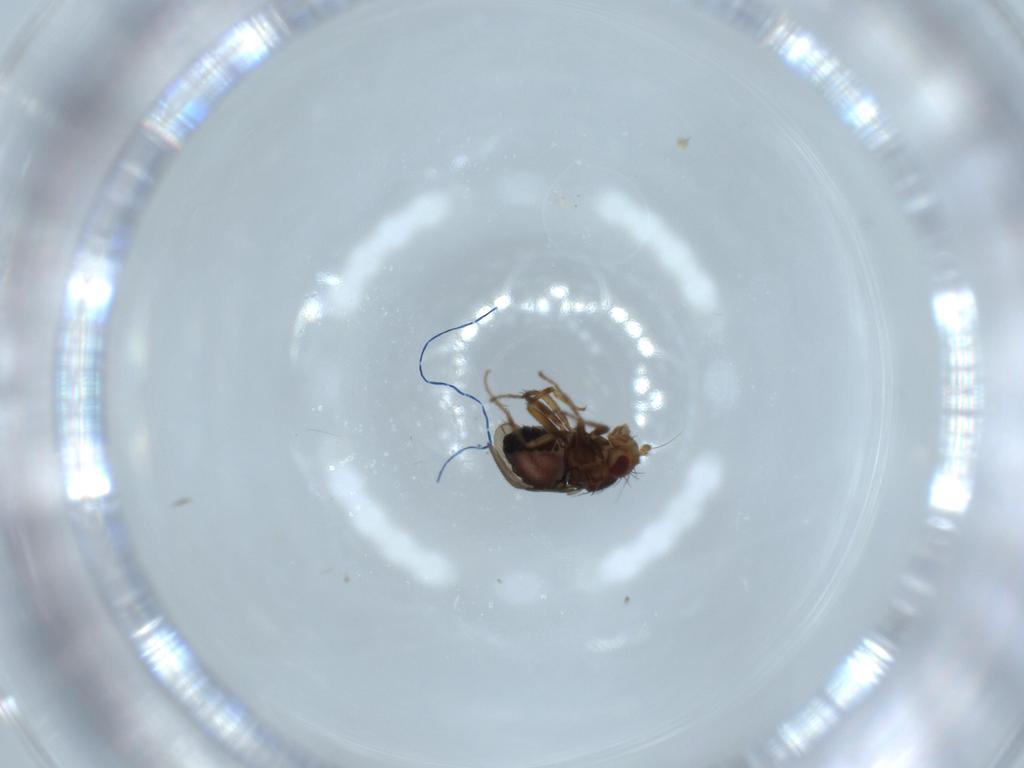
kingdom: Animalia
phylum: Arthropoda
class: Insecta
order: Diptera
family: Sphaeroceridae
